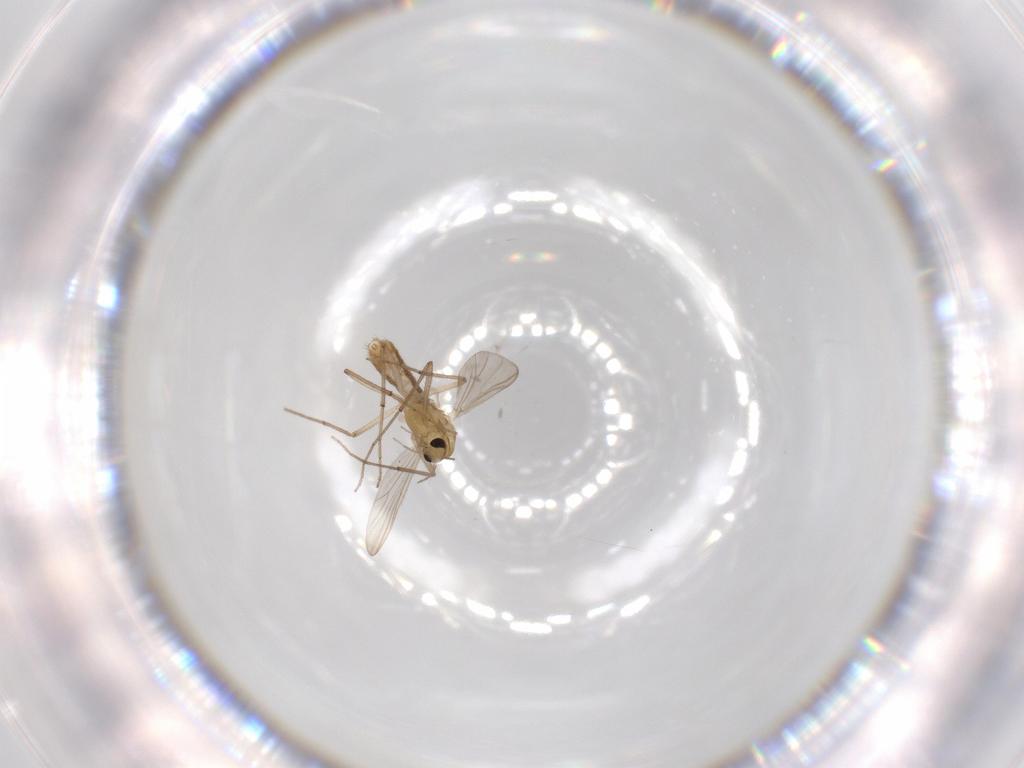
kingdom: Animalia
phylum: Arthropoda
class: Insecta
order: Diptera
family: Chironomidae
